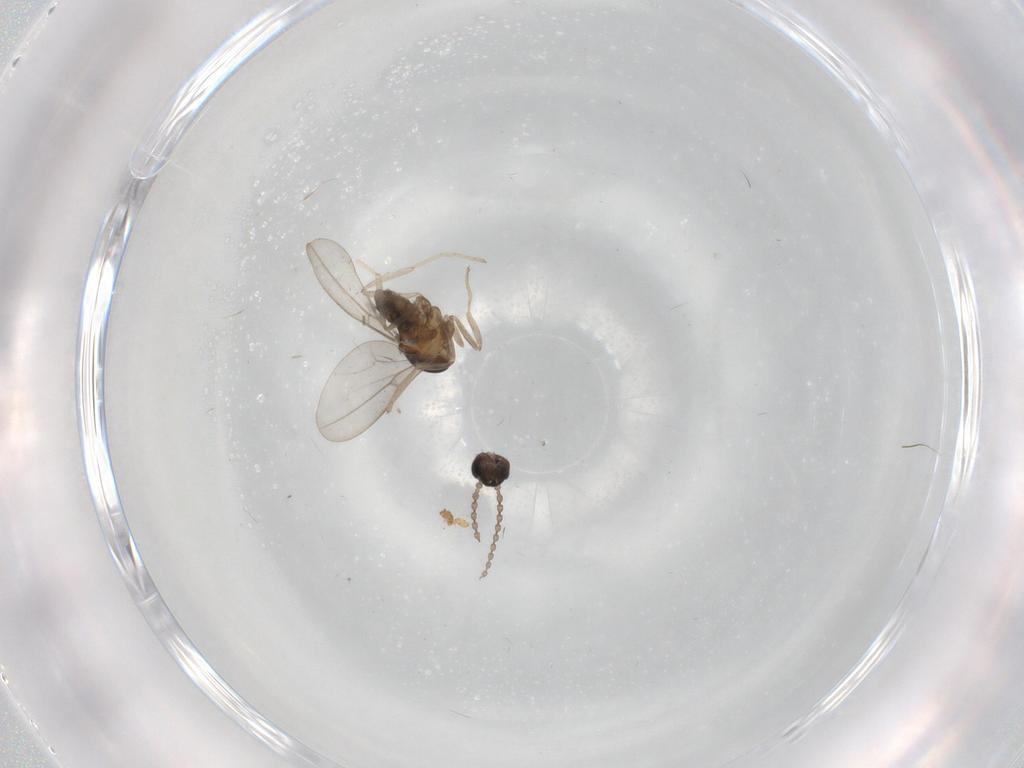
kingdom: Animalia
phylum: Arthropoda
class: Insecta
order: Diptera
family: Cecidomyiidae
